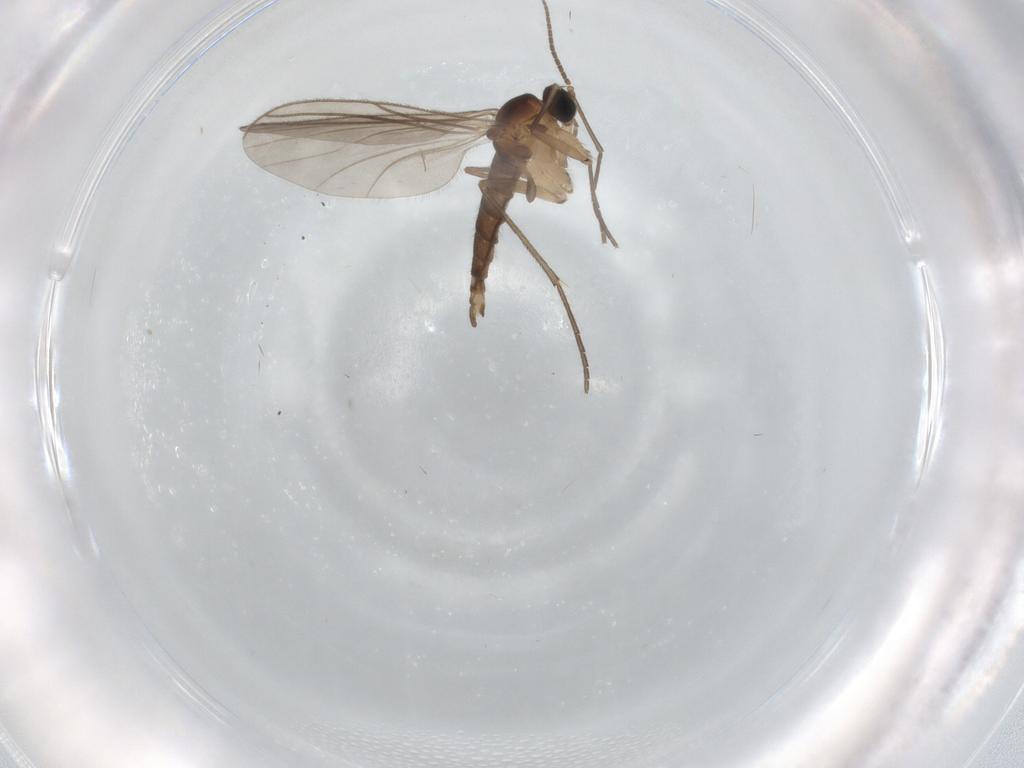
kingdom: Animalia
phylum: Arthropoda
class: Insecta
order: Diptera
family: Sciaridae
